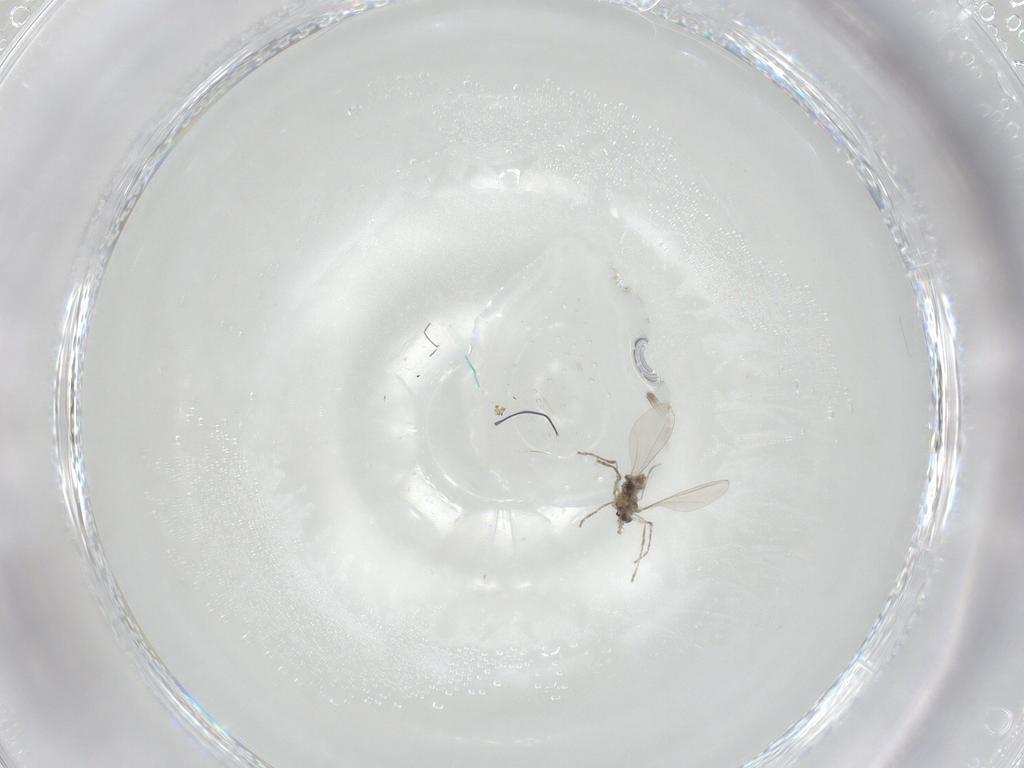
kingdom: Animalia
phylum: Arthropoda
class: Insecta
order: Diptera
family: Cecidomyiidae
